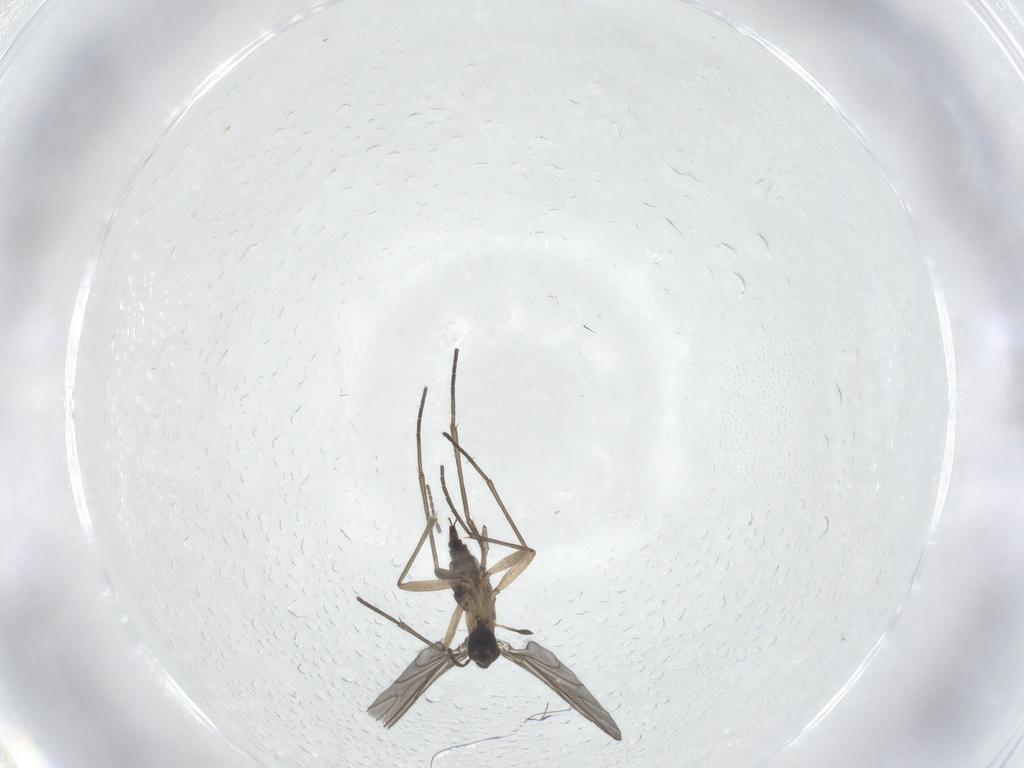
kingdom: Animalia
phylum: Arthropoda
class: Insecta
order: Diptera
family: Sciaridae
